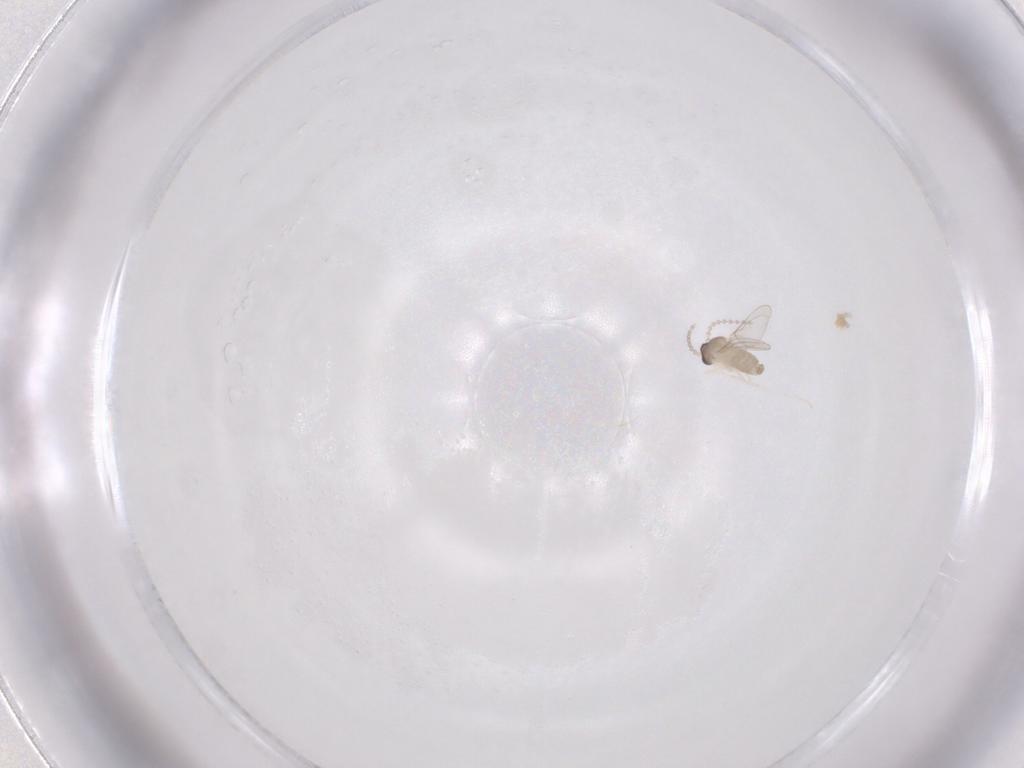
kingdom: Animalia
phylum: Arthropoda
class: Insecta
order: Diptera
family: Cecidomyiidae
